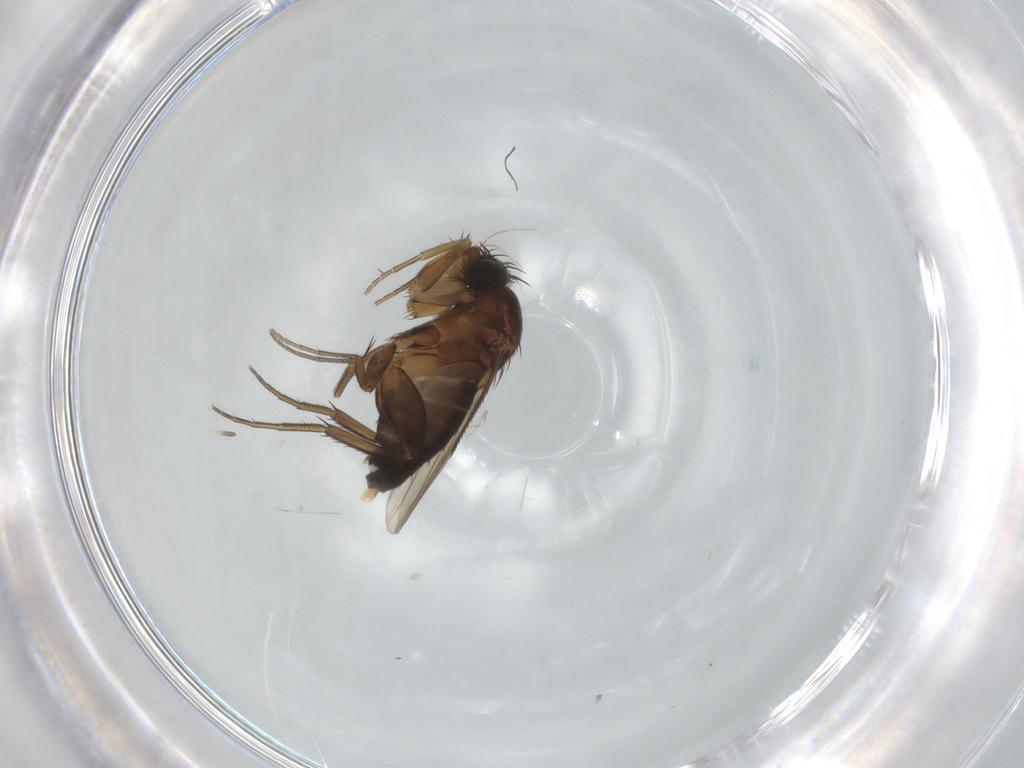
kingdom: Animalia
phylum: Arthropoda
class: Insecta
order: Diptera
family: Phoridae
